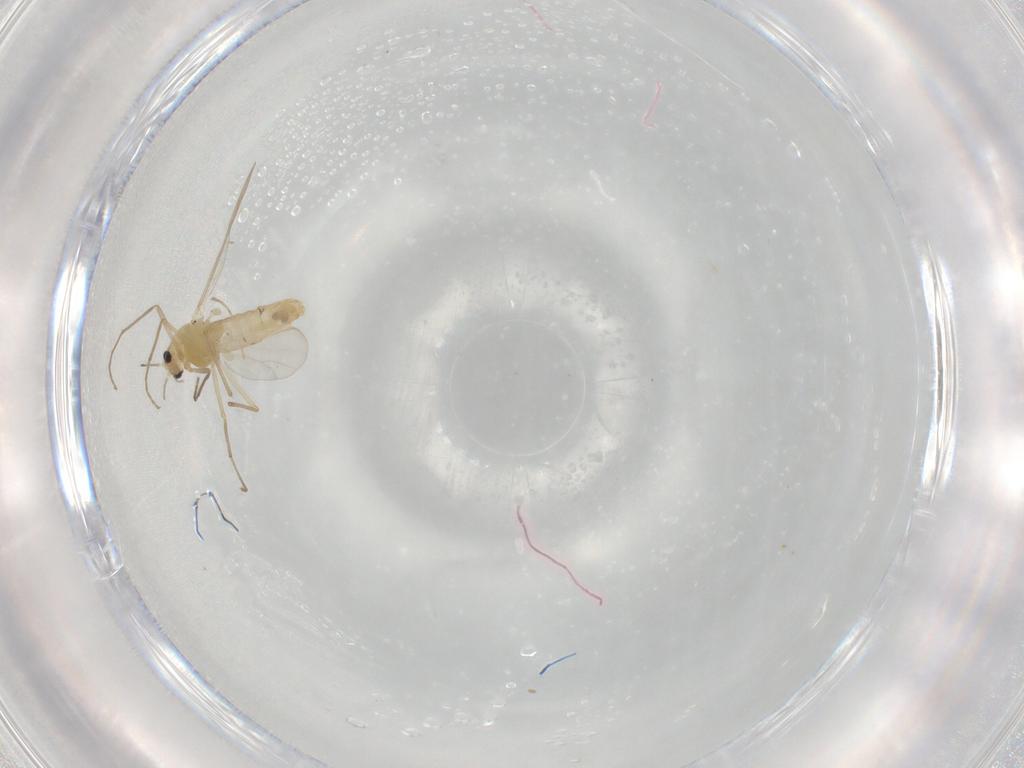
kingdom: Animalia
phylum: Arthropoda
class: Insecta
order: Diptera
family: Chironomidae
